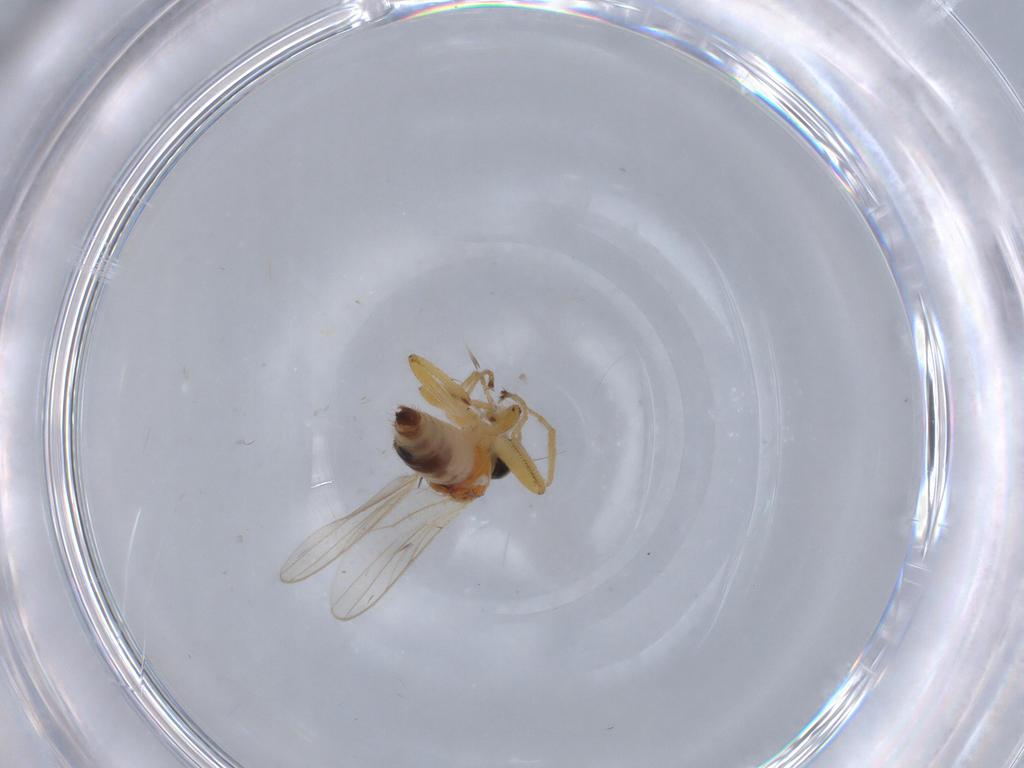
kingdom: Animalia
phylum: Arthropoda
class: Insecta
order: Diptera
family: Hybotidae
